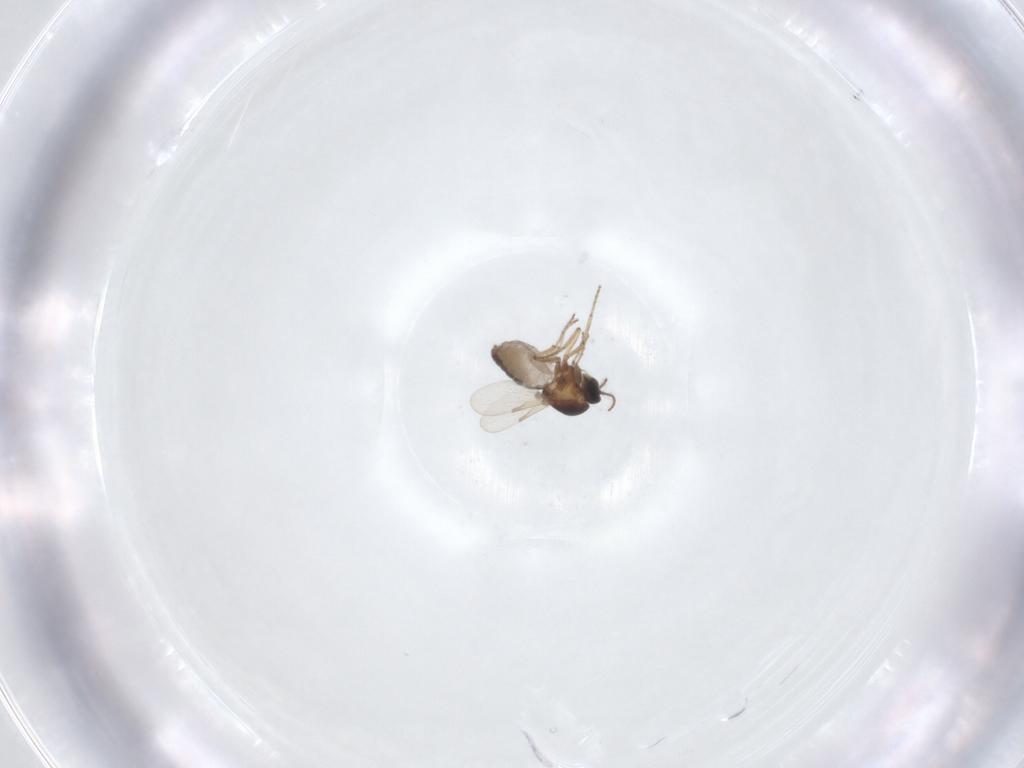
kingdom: Animalia
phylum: Arthropoda
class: Insecta
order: Diptera
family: Ceratopogonidae
